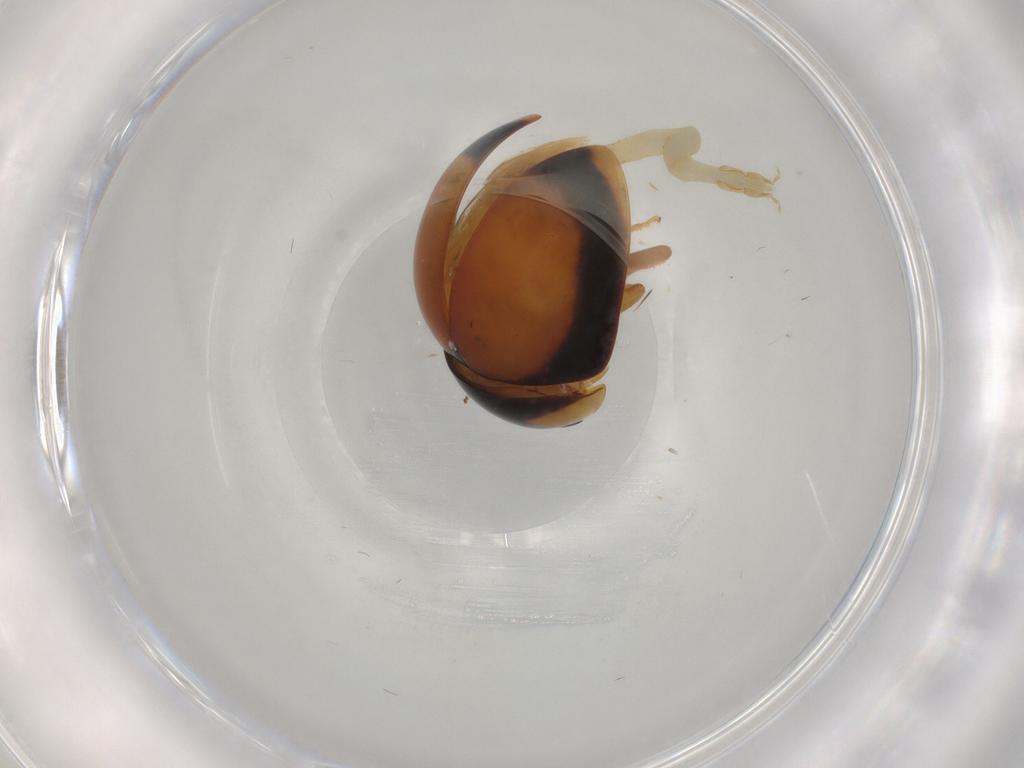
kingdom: Animalia
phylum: Arthropoda
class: Insecta
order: Coleoptera
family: Phalacridae
